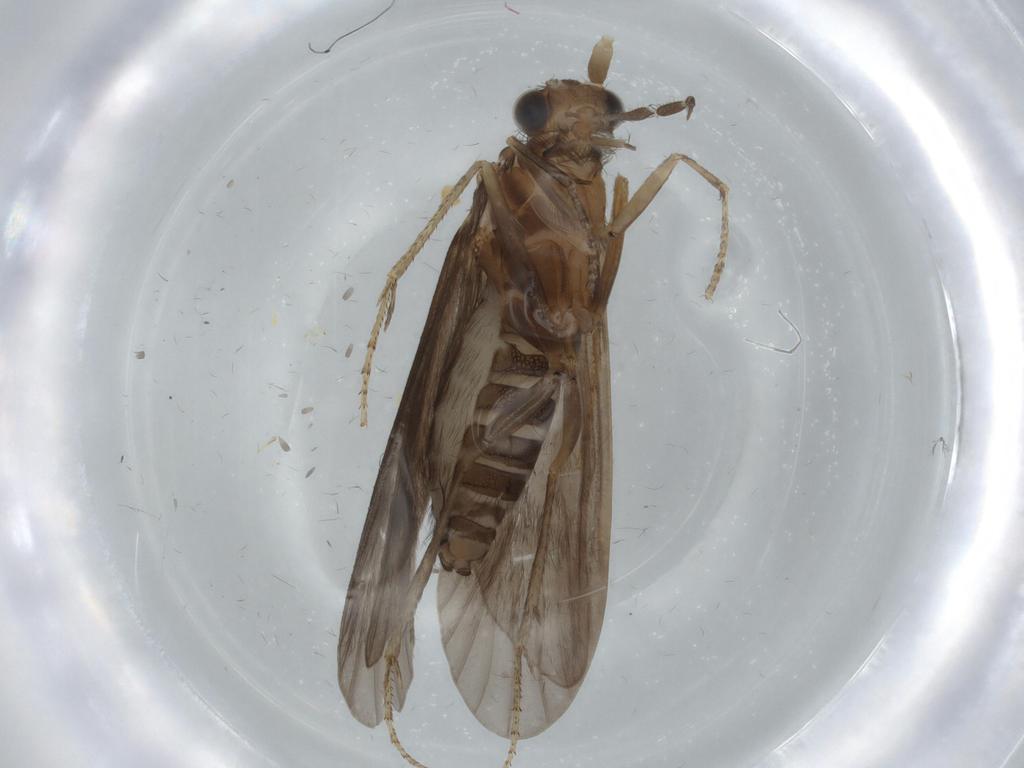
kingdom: Animalia
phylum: Arthropoda
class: Insecta
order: Trichoptera
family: Helicopsychidae
